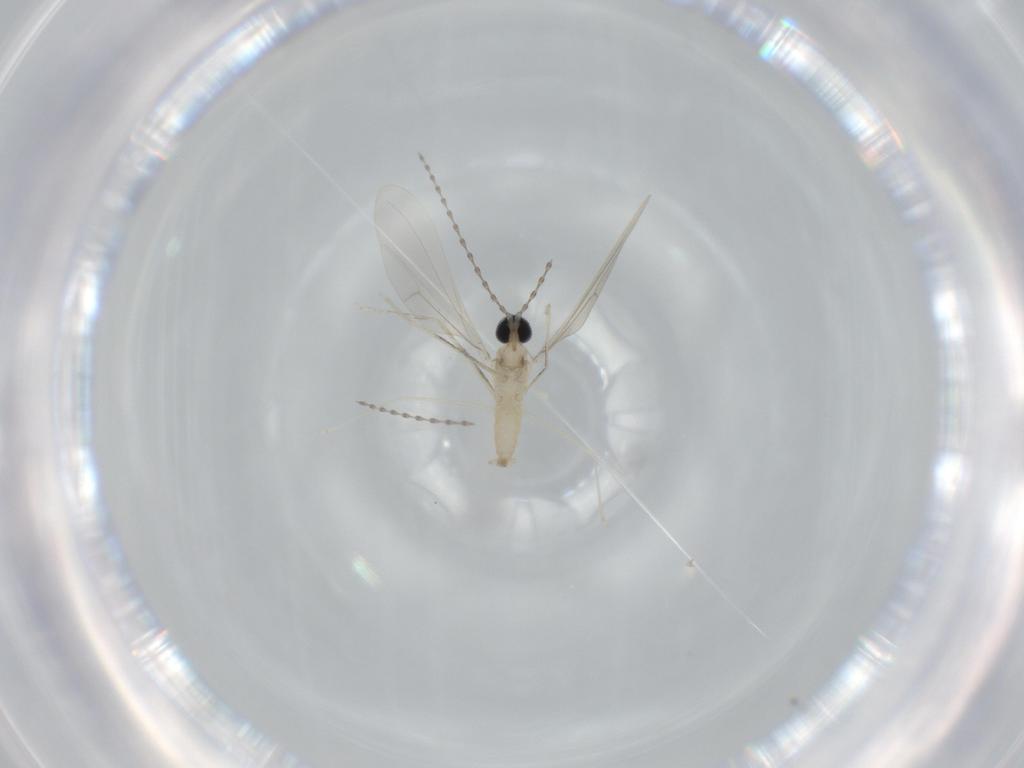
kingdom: Animalia
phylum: Arthropoda
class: Insecta
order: Diptera
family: Cecidomyiidae
